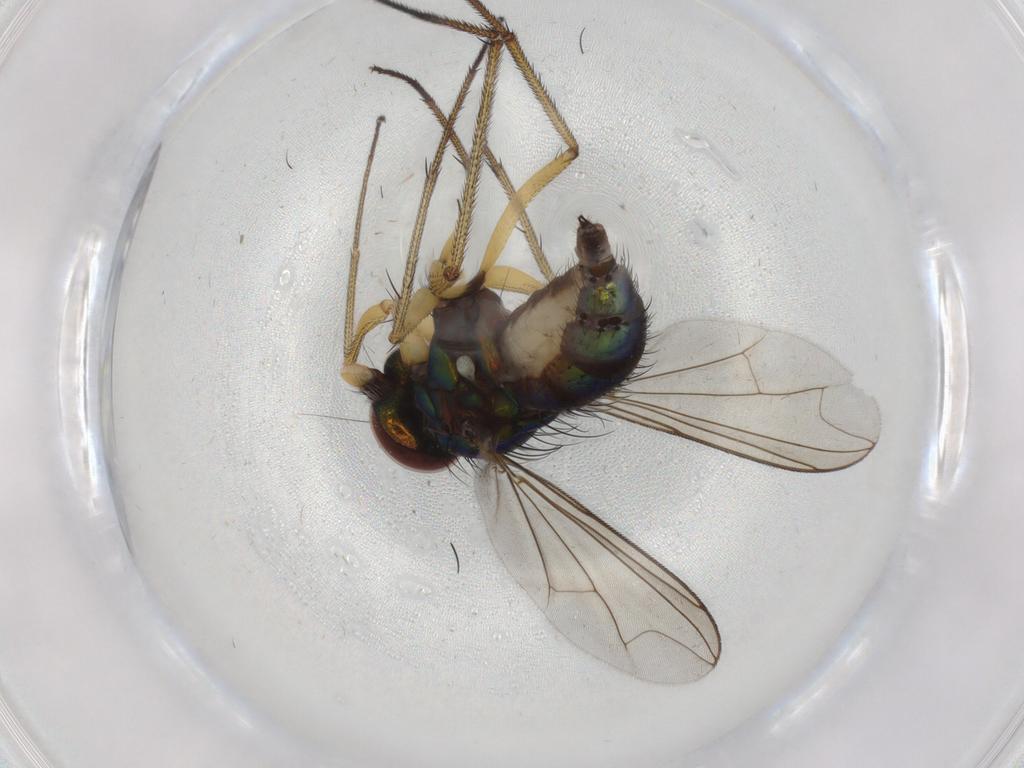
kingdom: Animalia
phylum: Arthropoda
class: Insecta
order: Diptera
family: Dolichopodidae
